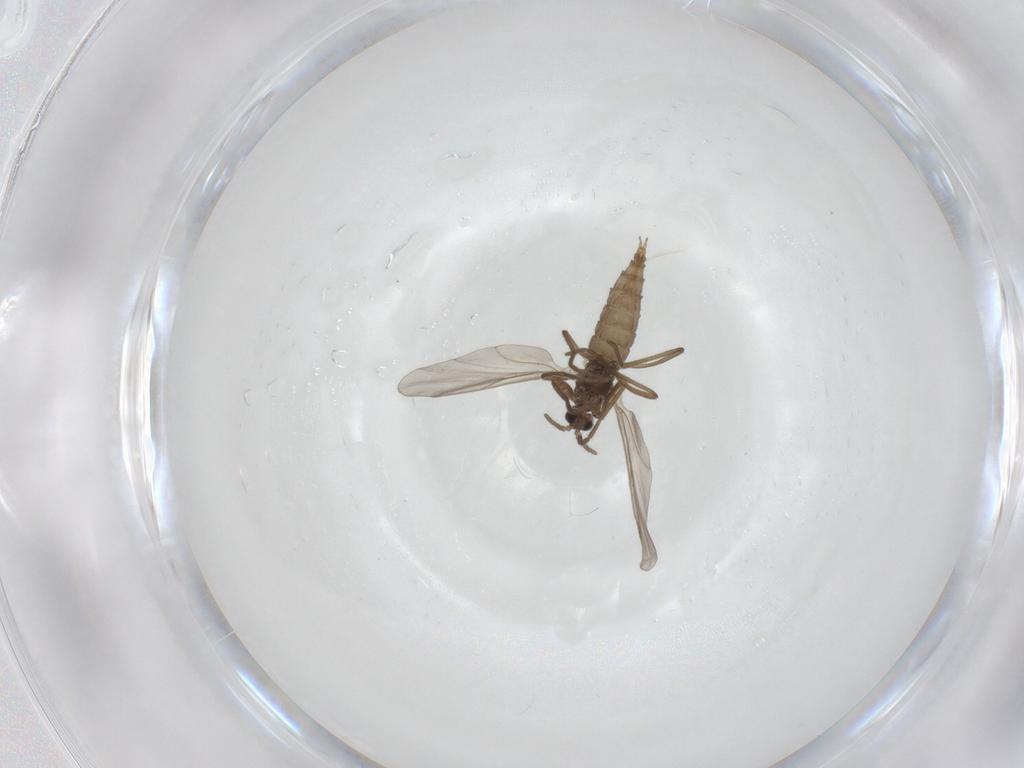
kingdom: Animalia
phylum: Arthropoda
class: Insecta
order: Diptera
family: Cecidomyiidae
